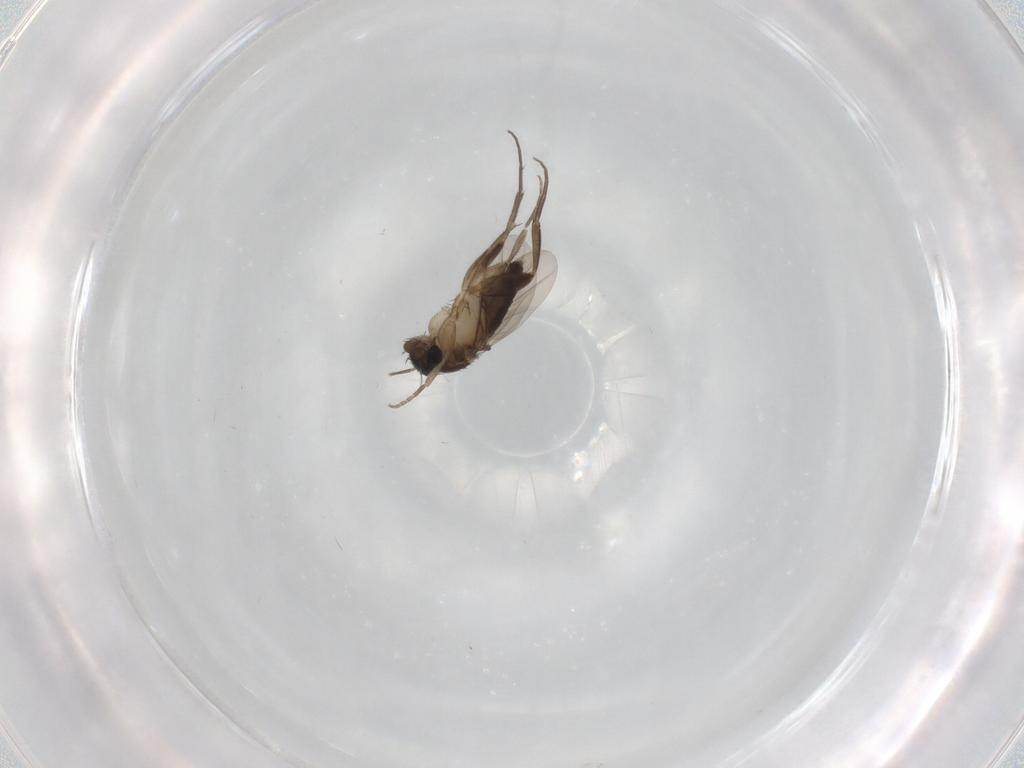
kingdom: Animalia
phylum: Arthropoda
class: Insecta
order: Diptera
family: Phoridae
